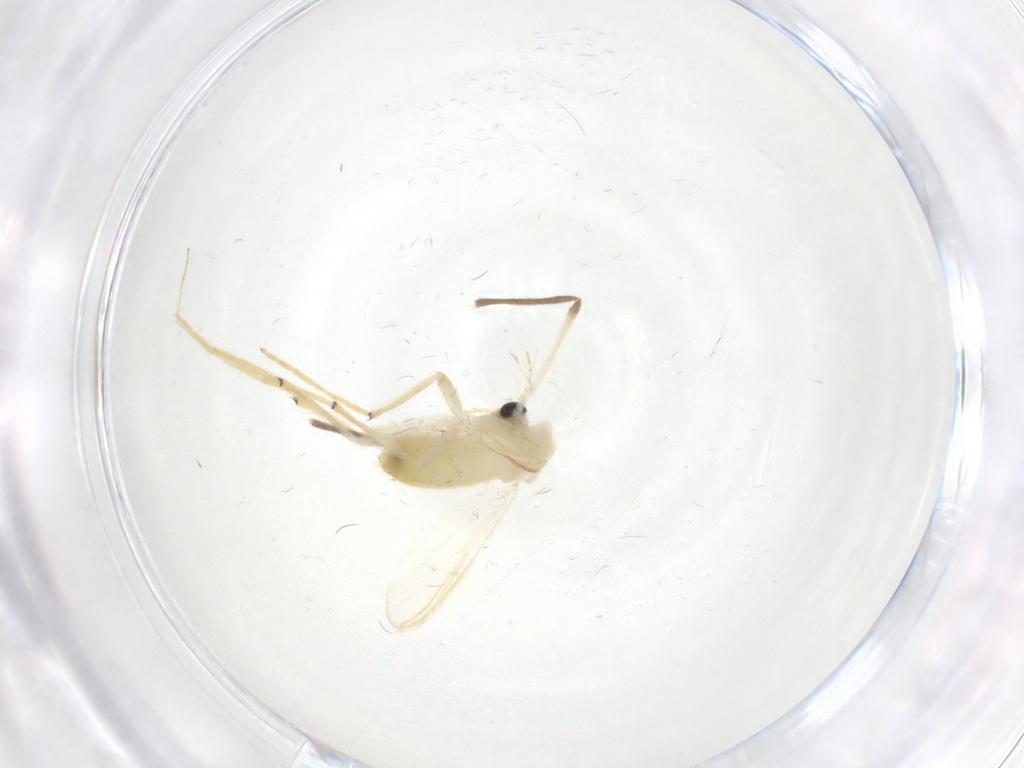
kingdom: Animalia
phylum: Arthropoda
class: Insecta
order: Diptera
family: Chironomidae
